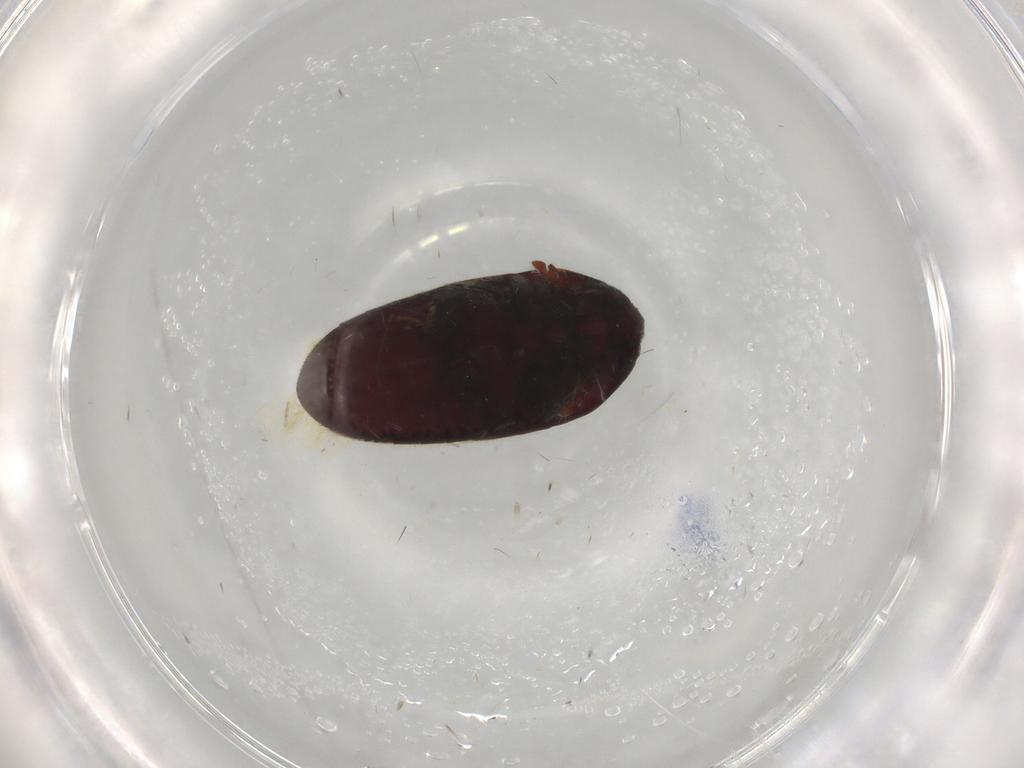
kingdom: Animalia
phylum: Arthropoda
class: Insecta
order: Coleoptera
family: Throscidae
